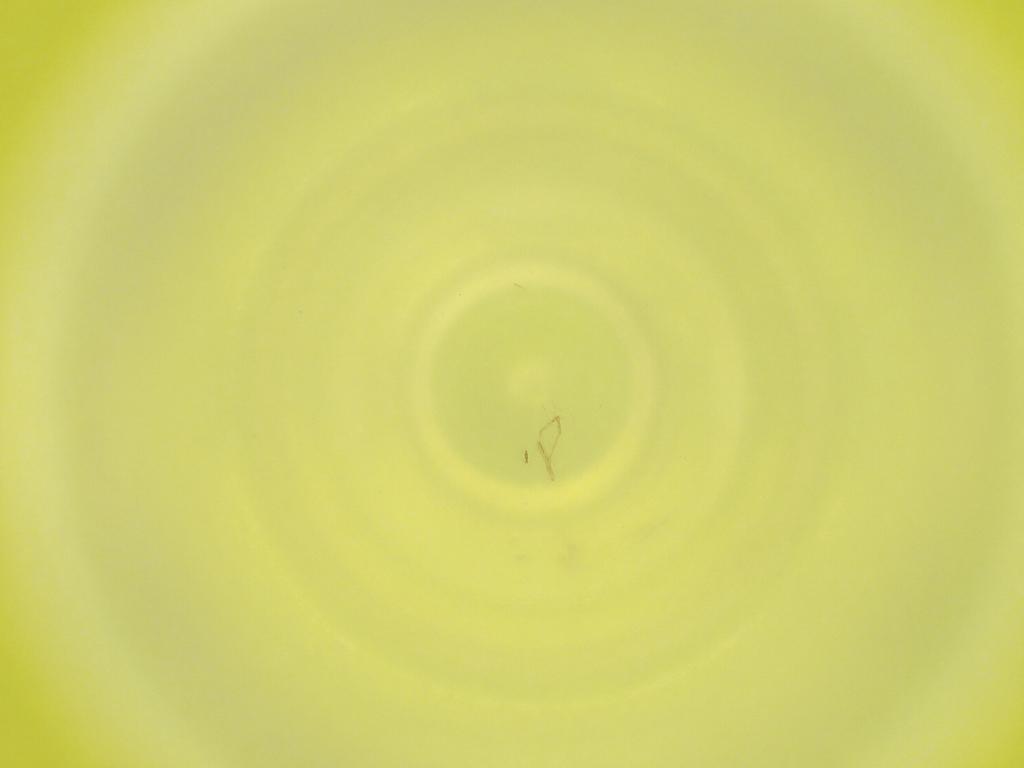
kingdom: Animalia
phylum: Arthropoda
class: Insecta
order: Diptera
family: Cecidomyiidae
